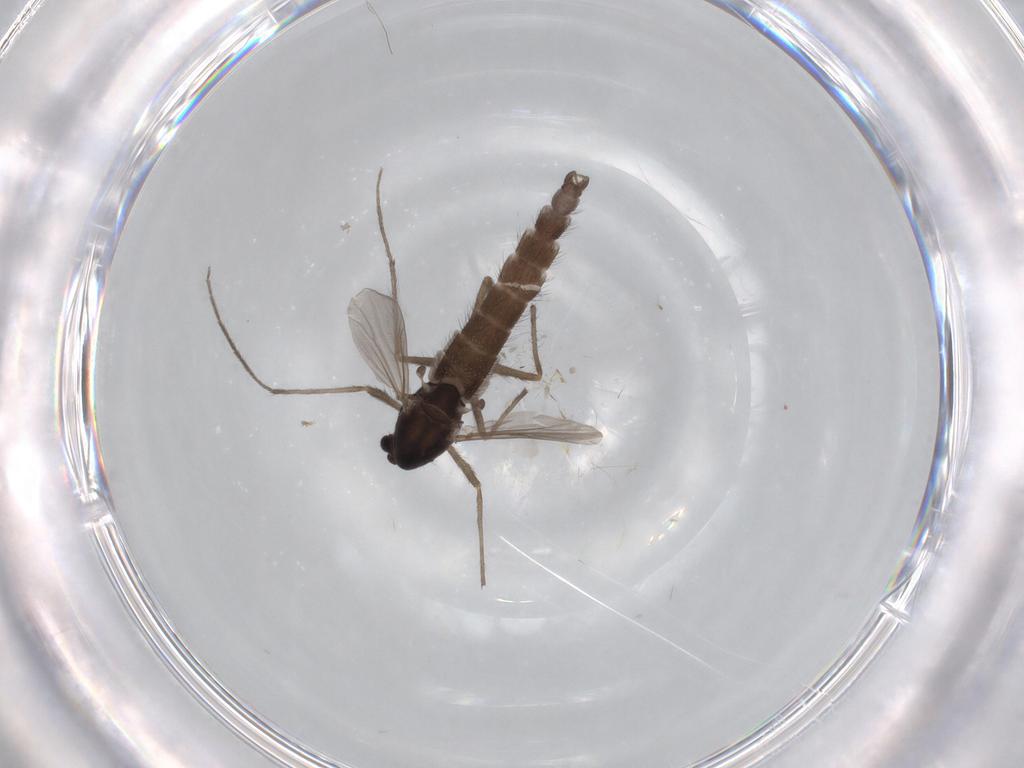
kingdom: Animalia
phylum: Arthropoda
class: Insecta
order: Diptera
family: Chironomidae
